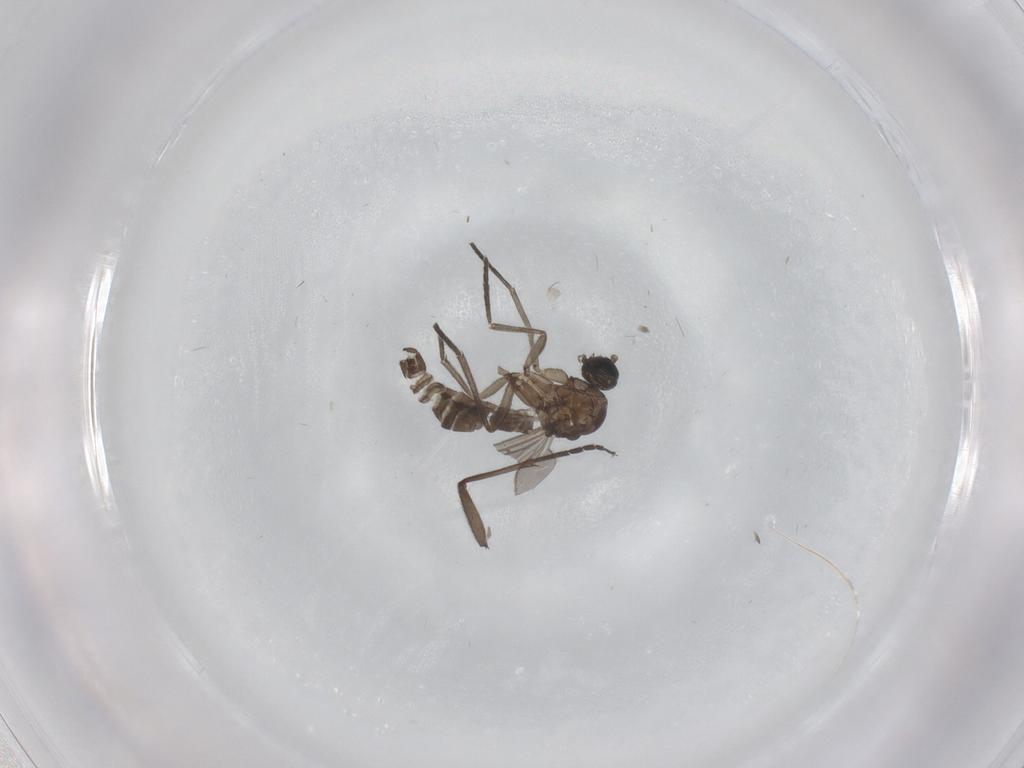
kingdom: Animalia
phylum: Arthropoda
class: Insecta
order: Diptera
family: Sciaridae
